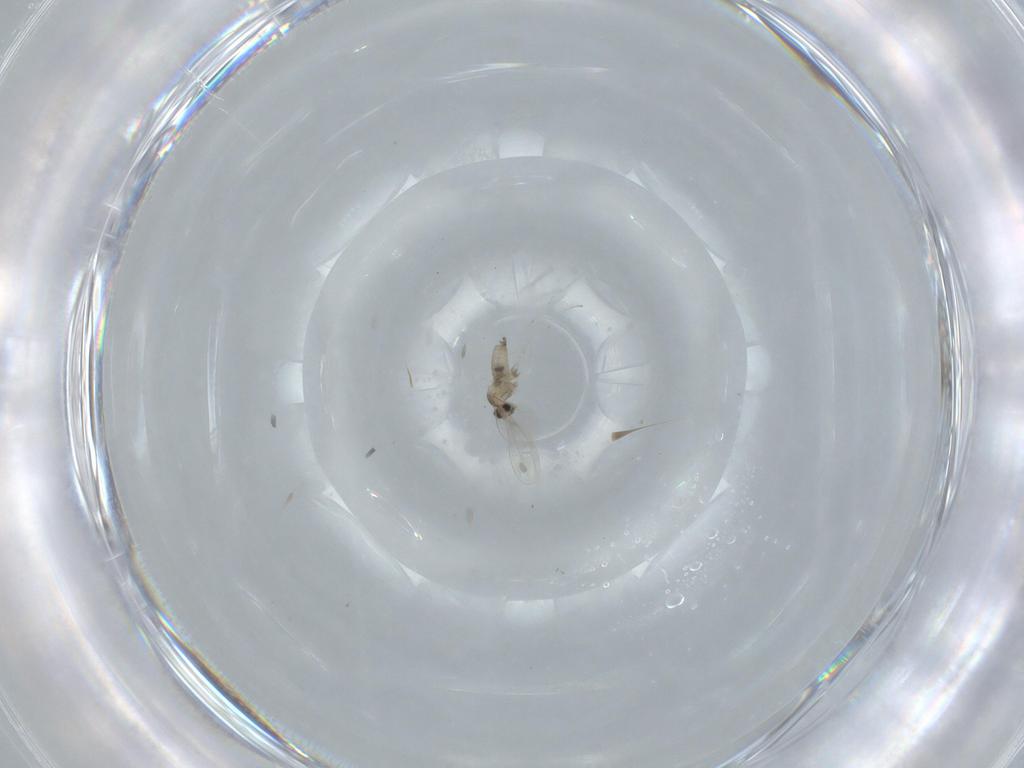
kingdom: Animalia
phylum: Arthropoda
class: Insecta
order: Diptera
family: Cecidomyiidae
